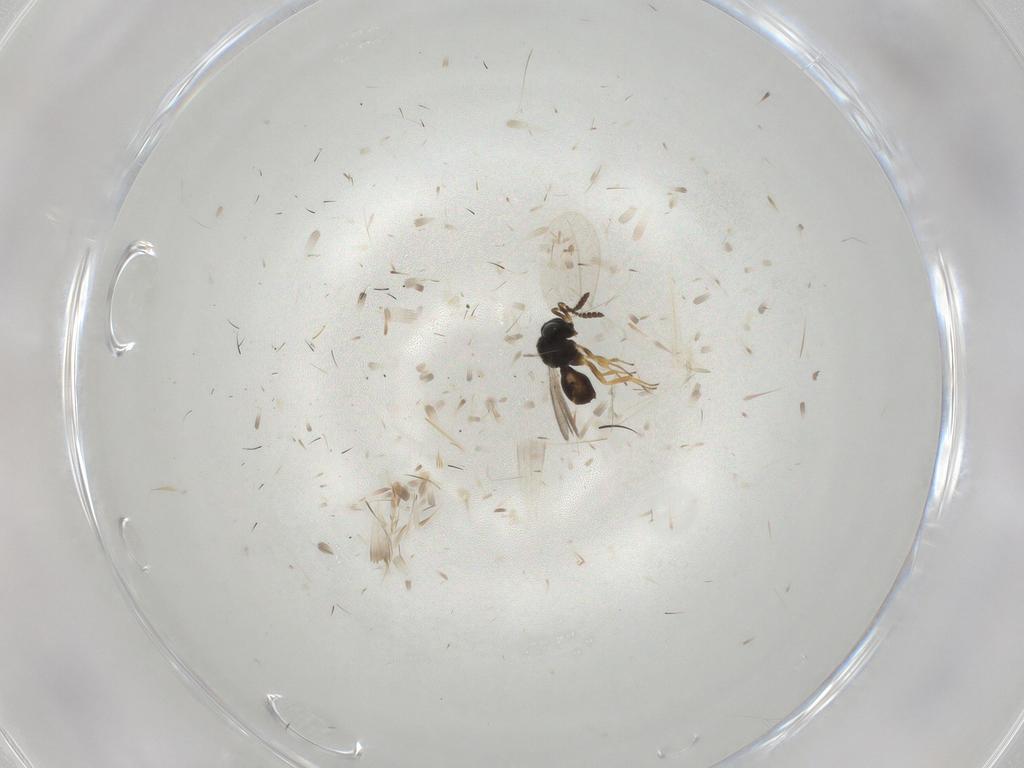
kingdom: Animalia
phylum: Arthropoda
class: Insecta
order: Hymenoptera
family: Scelionidae
